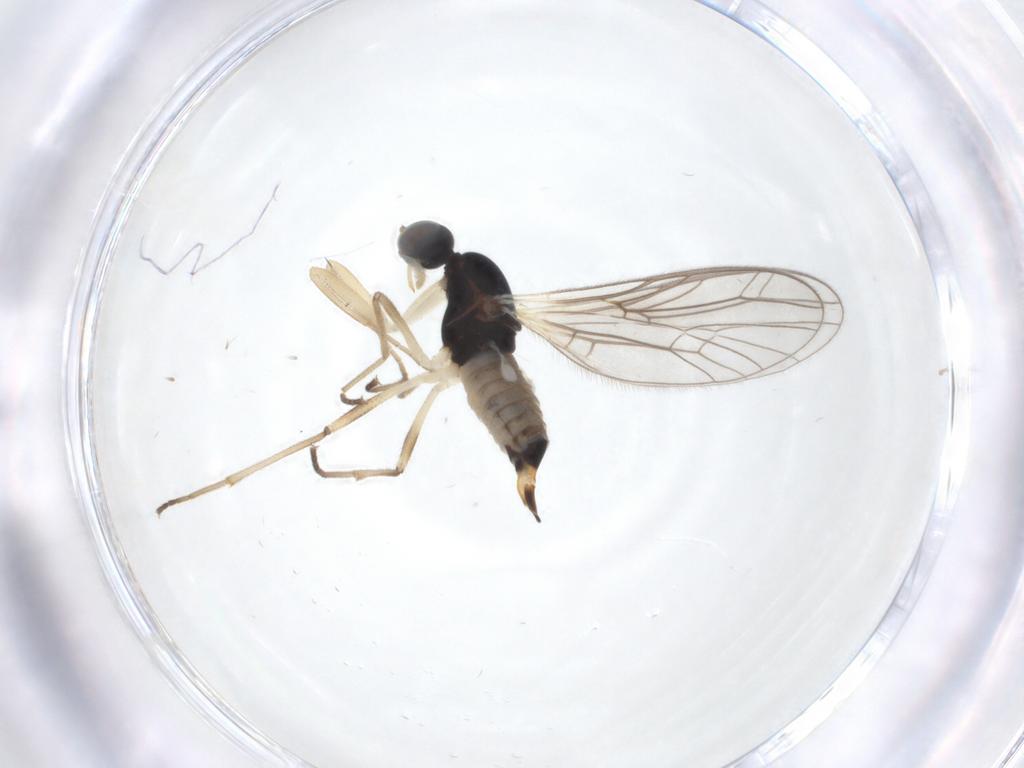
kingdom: Animalia
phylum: Arthropoda
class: Insecta
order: Diptera
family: Empididae
